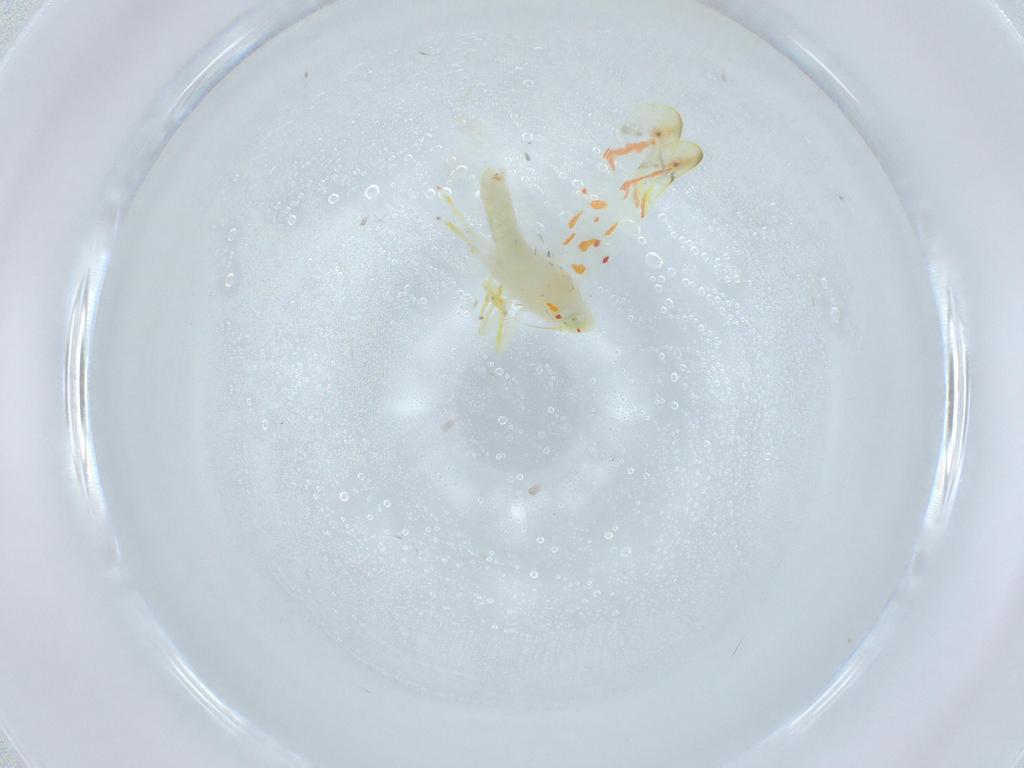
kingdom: Animalia
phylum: Arthropoda
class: Insecta
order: Hemiptera
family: Cicadellidae
